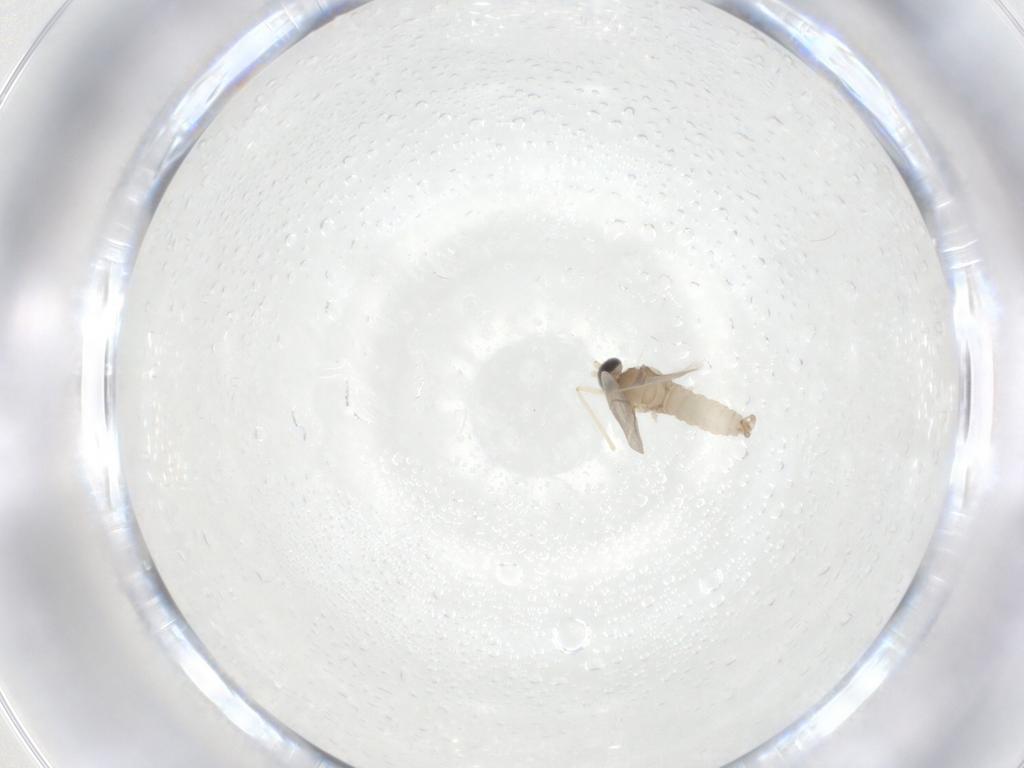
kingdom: Animalia
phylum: Arthropoda
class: Insecta
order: Diptera
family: Cecidomyiidae
